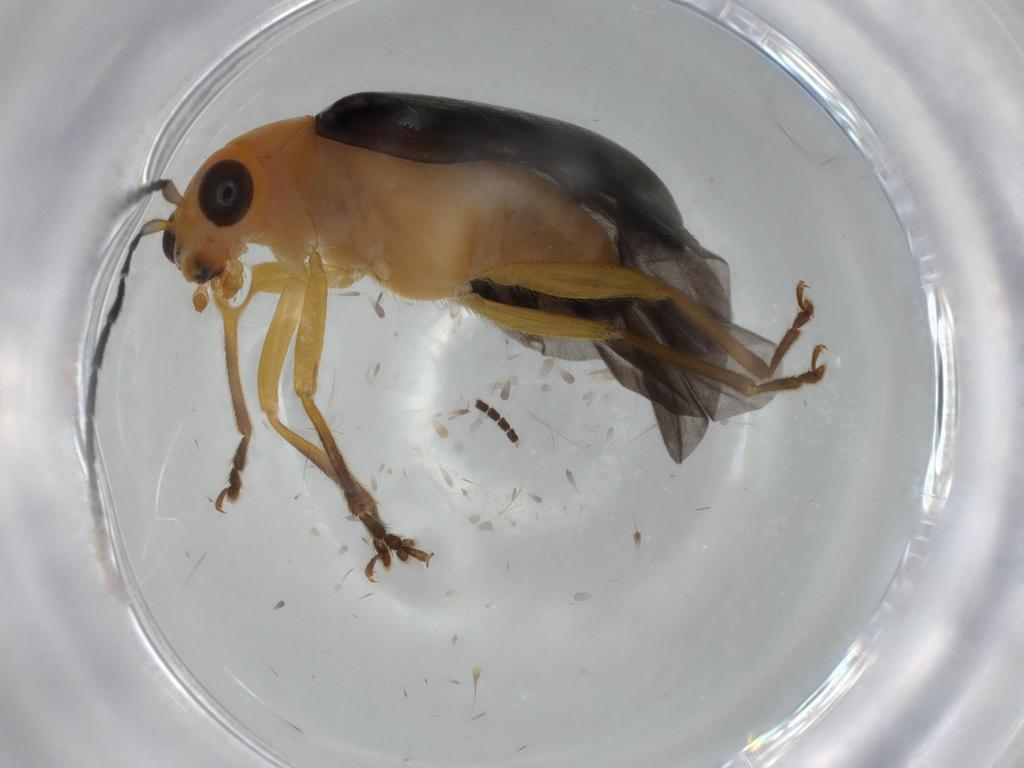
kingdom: Animalia
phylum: Arthropoda
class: Insecta
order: Coleoptera
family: Chrysomelidae
